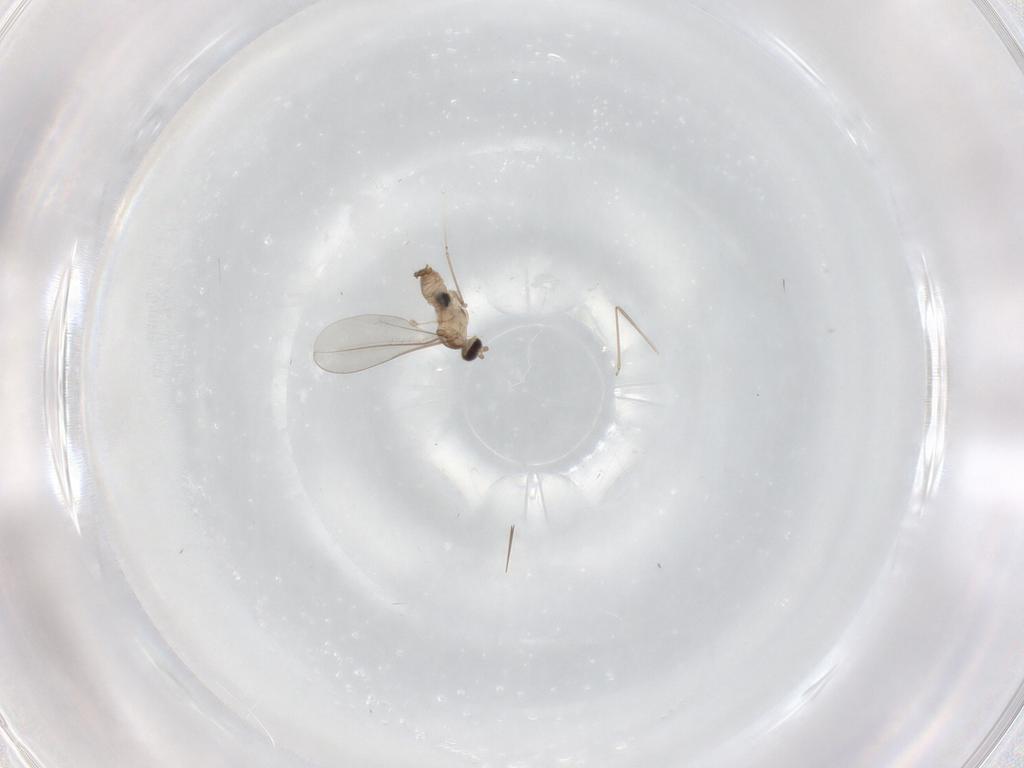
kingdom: Animalia
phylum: Arthropoda
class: Insecta
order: Diptera
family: Cecidomyiidae
